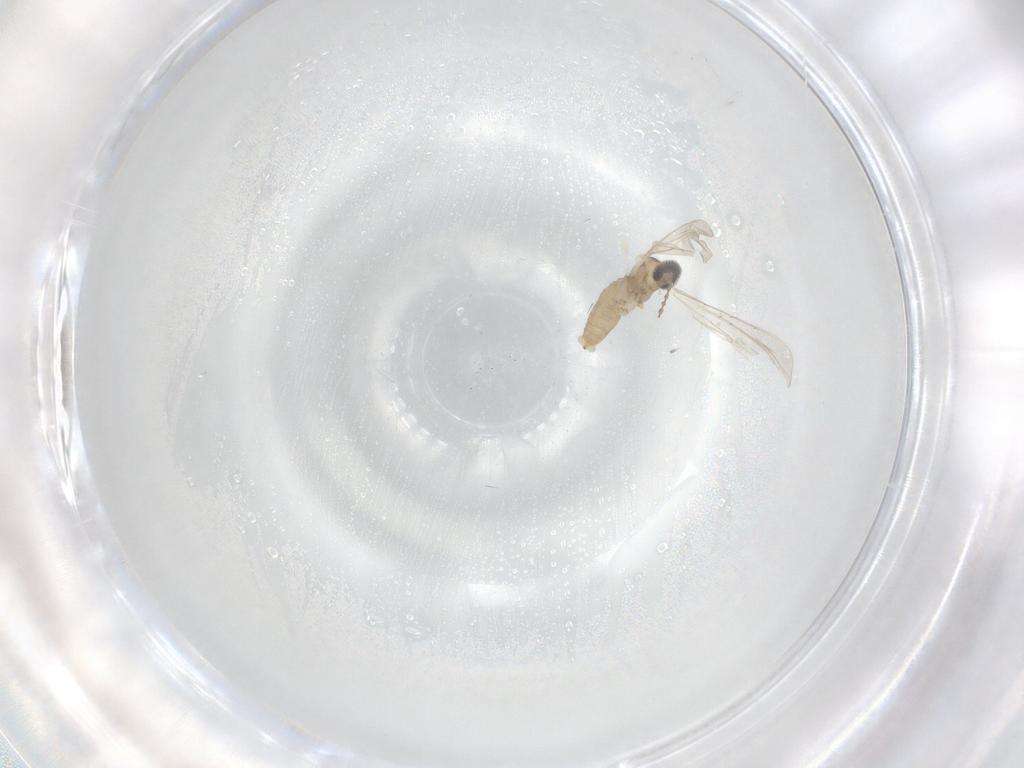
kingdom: Animalia
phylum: Arthropoda
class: Insecta
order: Diptera
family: Cecidomyiidae
